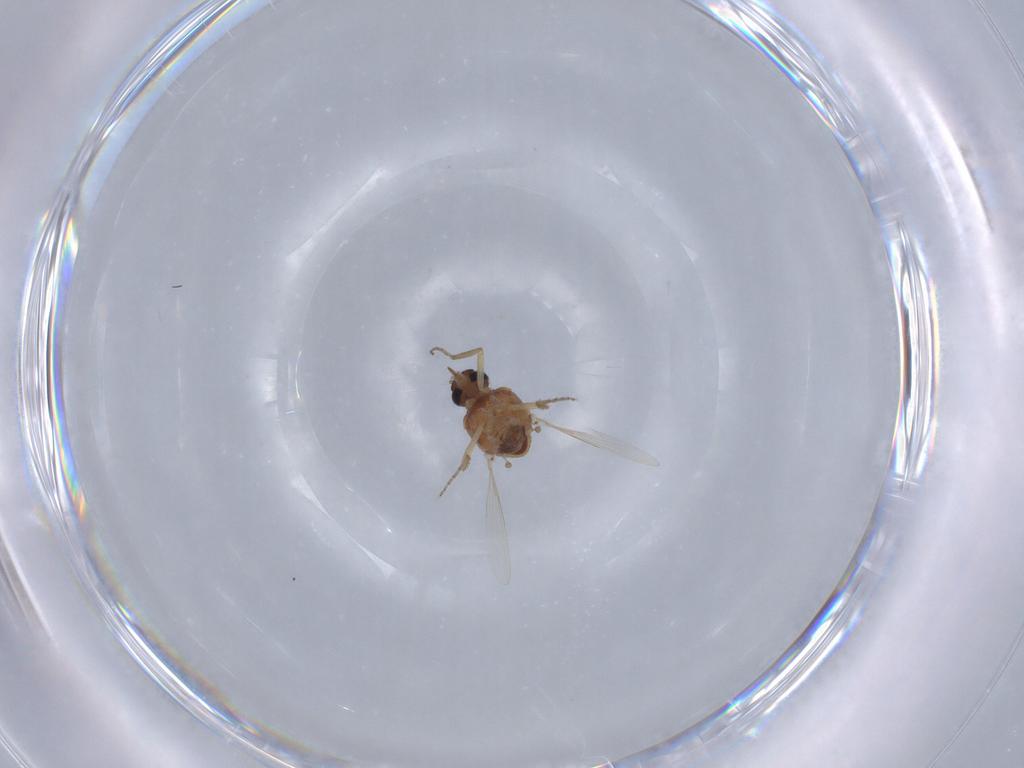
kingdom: Animalia
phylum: Arthropoda
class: Insecta
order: Diptera
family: Ceratopogonidae
